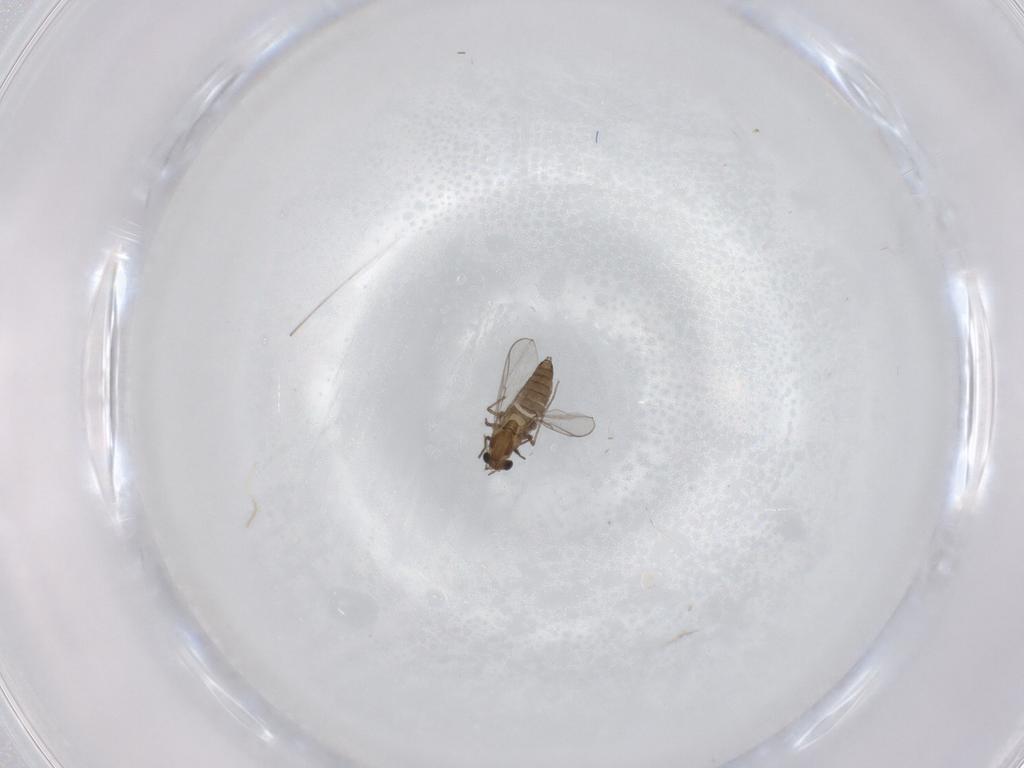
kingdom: Animalia
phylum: Arthropoda
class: Insecta
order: Diptera
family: Chironomidae
